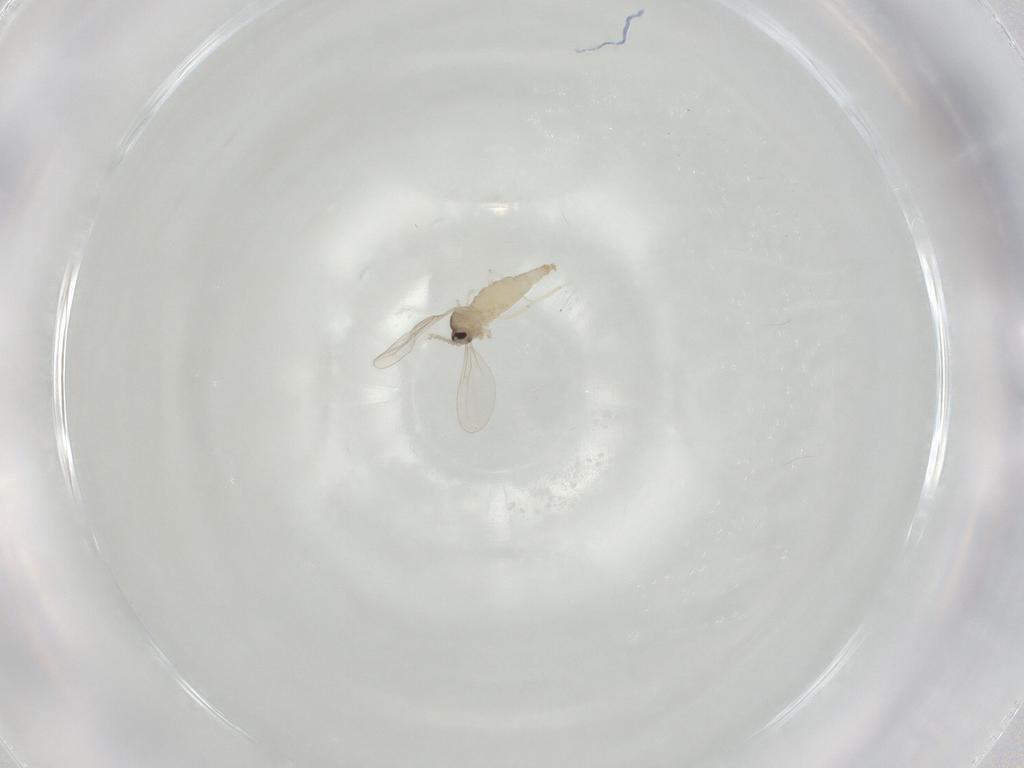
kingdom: Animalia
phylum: Arthropoda
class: Insecta
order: Diptera
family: Cecidomyiidae
